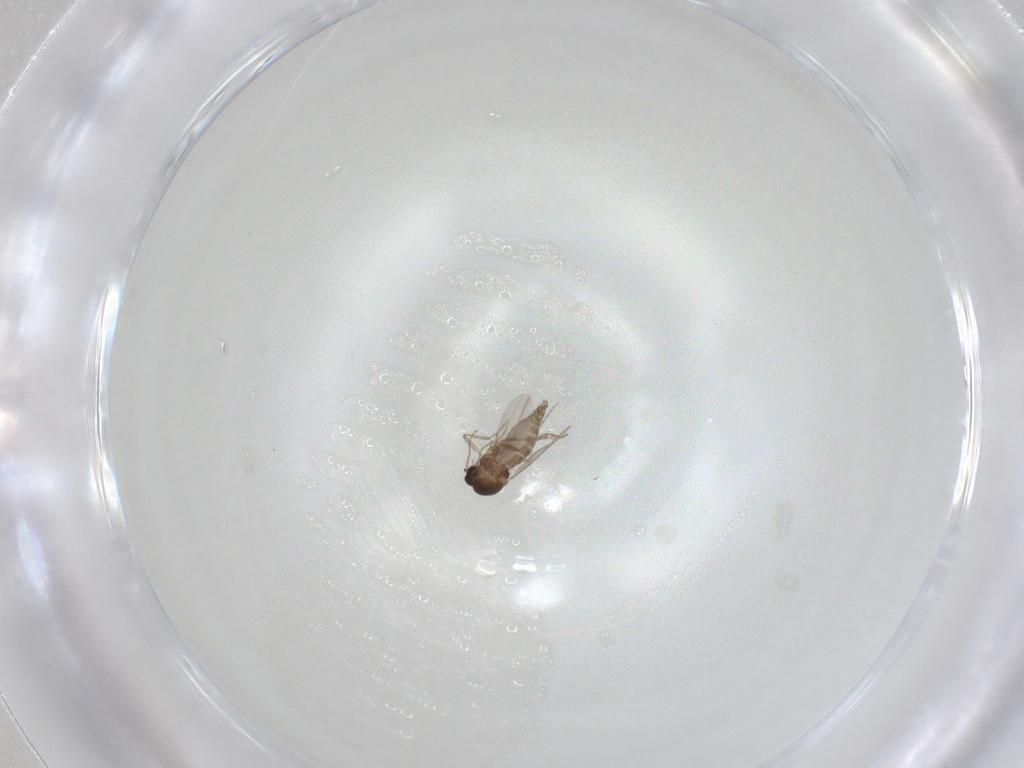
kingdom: Animalia
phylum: Arthropoda
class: Insecta
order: Diptera
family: Ceratopogonidae
